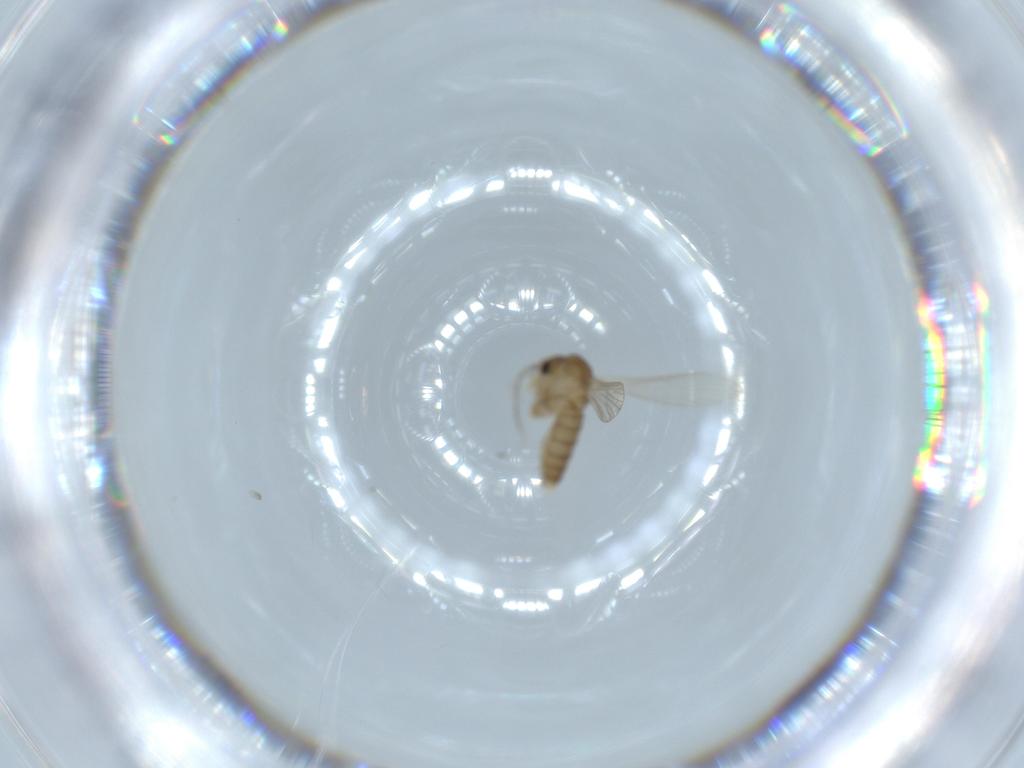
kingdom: Animalia
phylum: Arthropoda
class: Insecta
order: Diptera
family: Psychodidae
